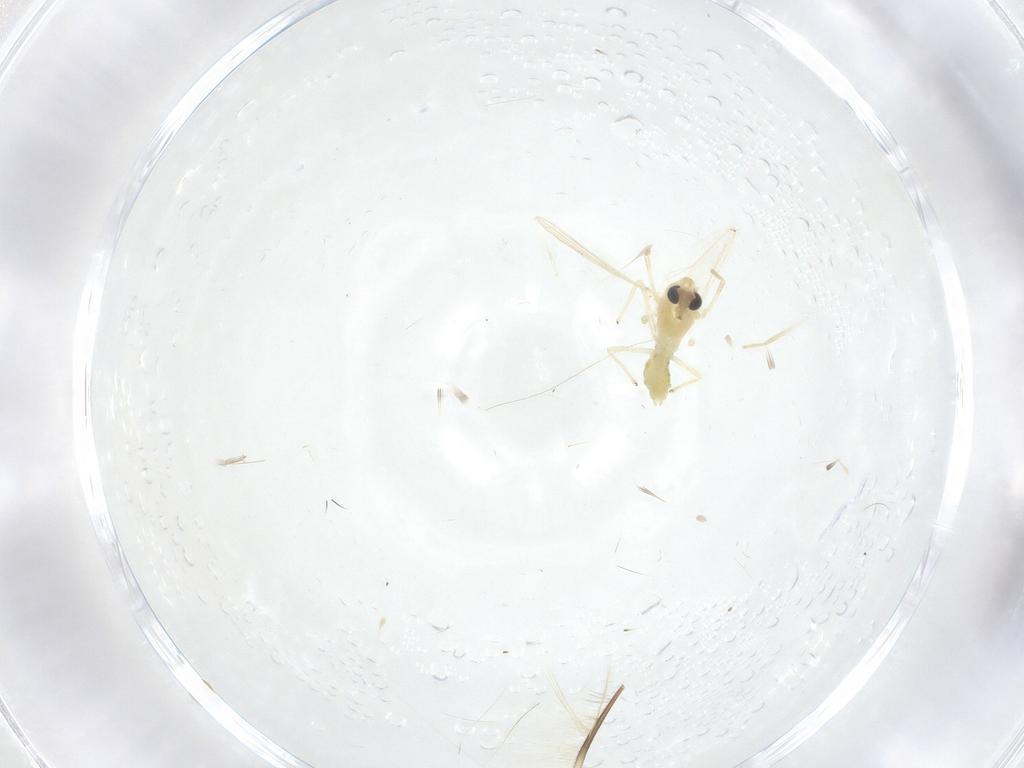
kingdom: Animalia
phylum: Arthropoda
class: Insecta
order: Diptera
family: Chironomidae
